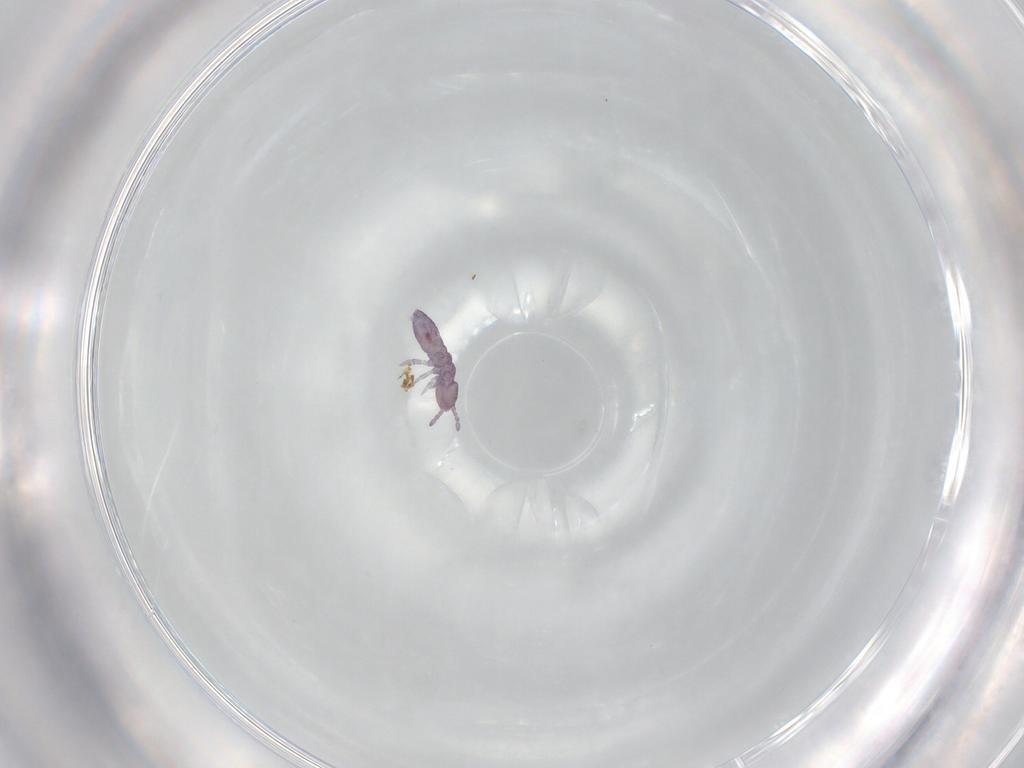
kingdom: Animalia
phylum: Arthropoda
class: Collembola
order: Entomobryomorpha
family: Isotomidae
